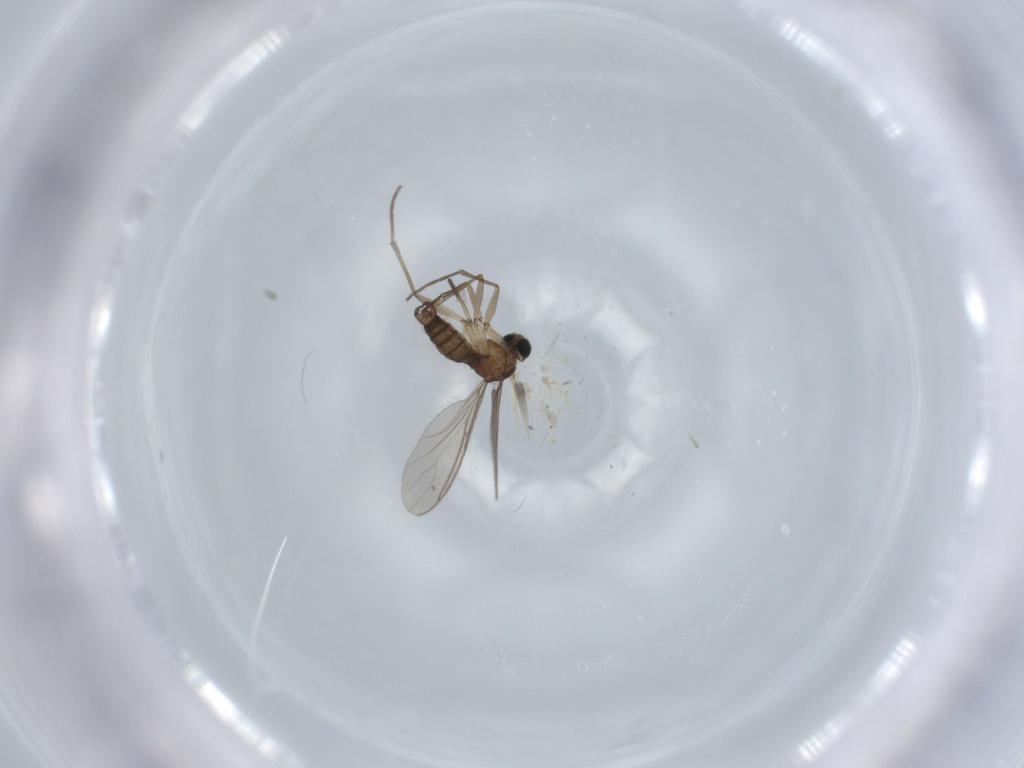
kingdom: Animalia
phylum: Arthropoda
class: Insecta
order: Diptera
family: Sciaridae
